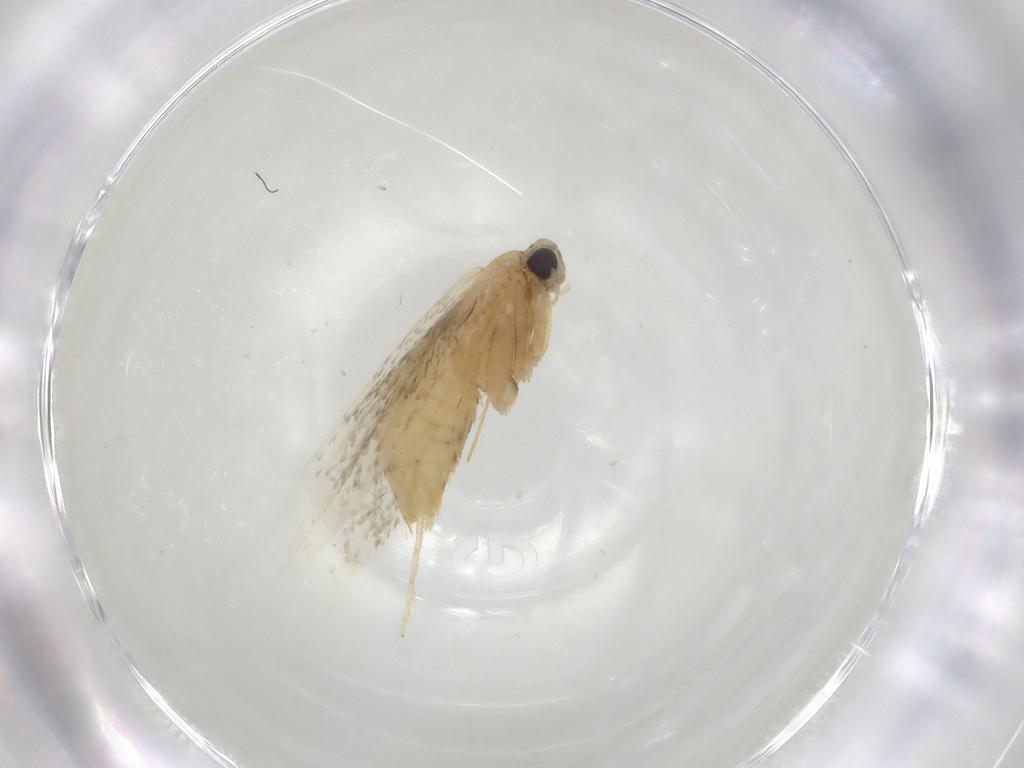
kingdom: Animalia
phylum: Arthropoda
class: Insecta
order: Lepidoptera
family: Tineidae
